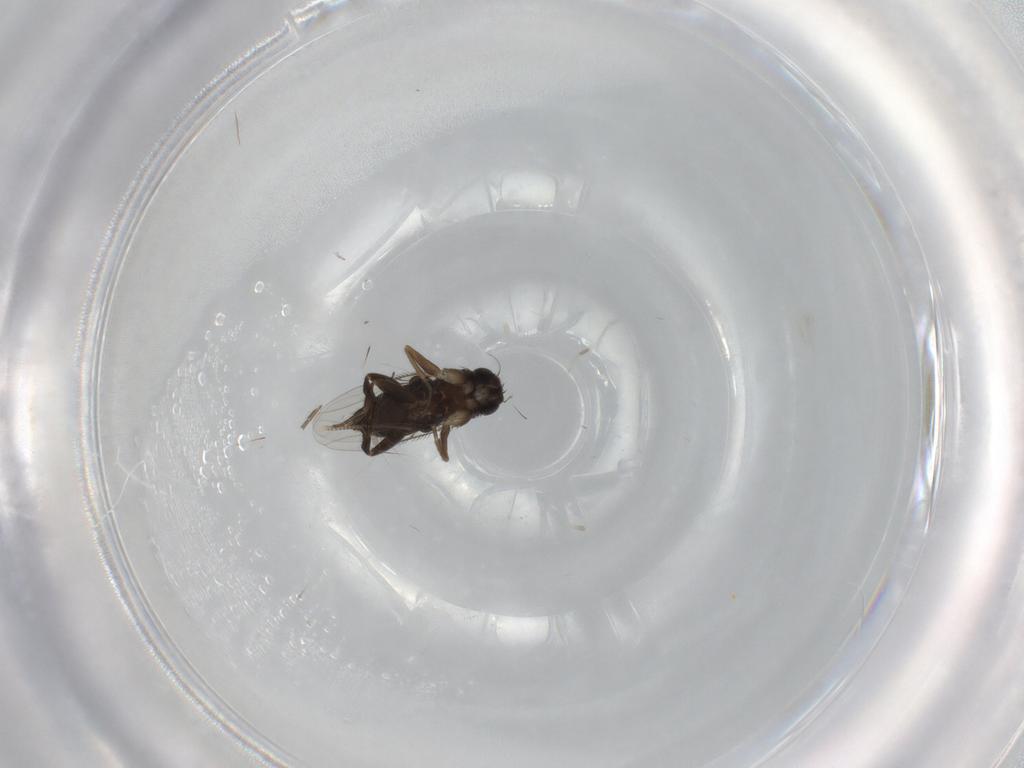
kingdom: Animalia
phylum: Arthropoda
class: Insecta
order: Diptera
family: Phoridae
